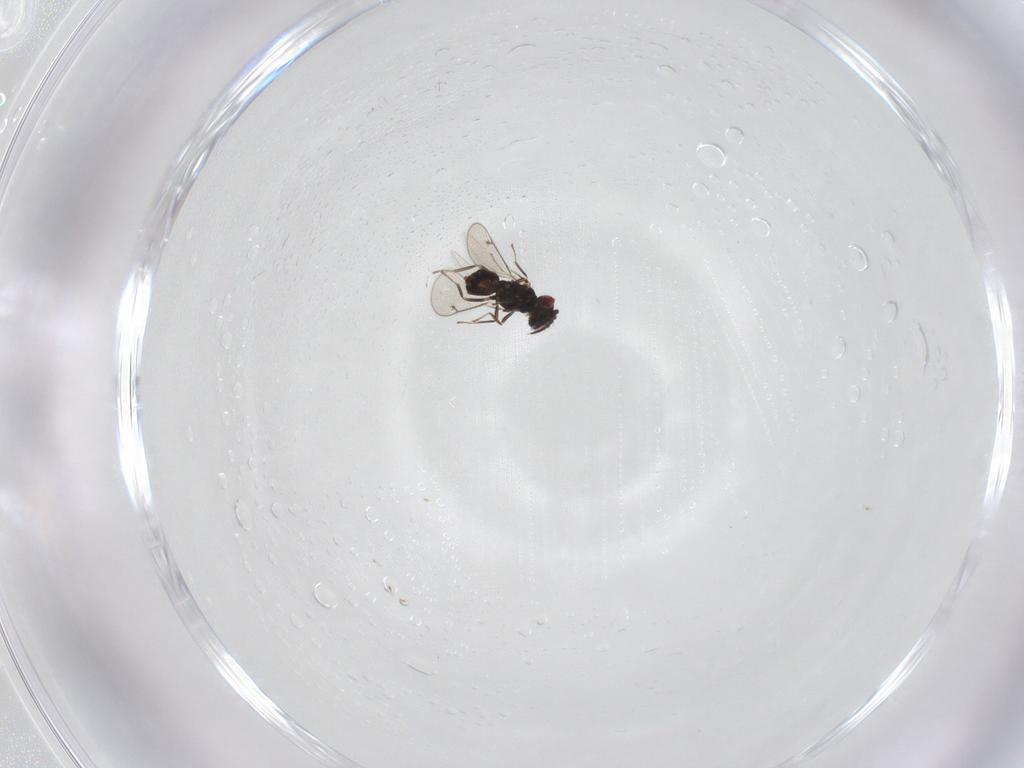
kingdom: Animalia
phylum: Arthropoda
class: Insecta
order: Hymenoptera
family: Eulophidae
